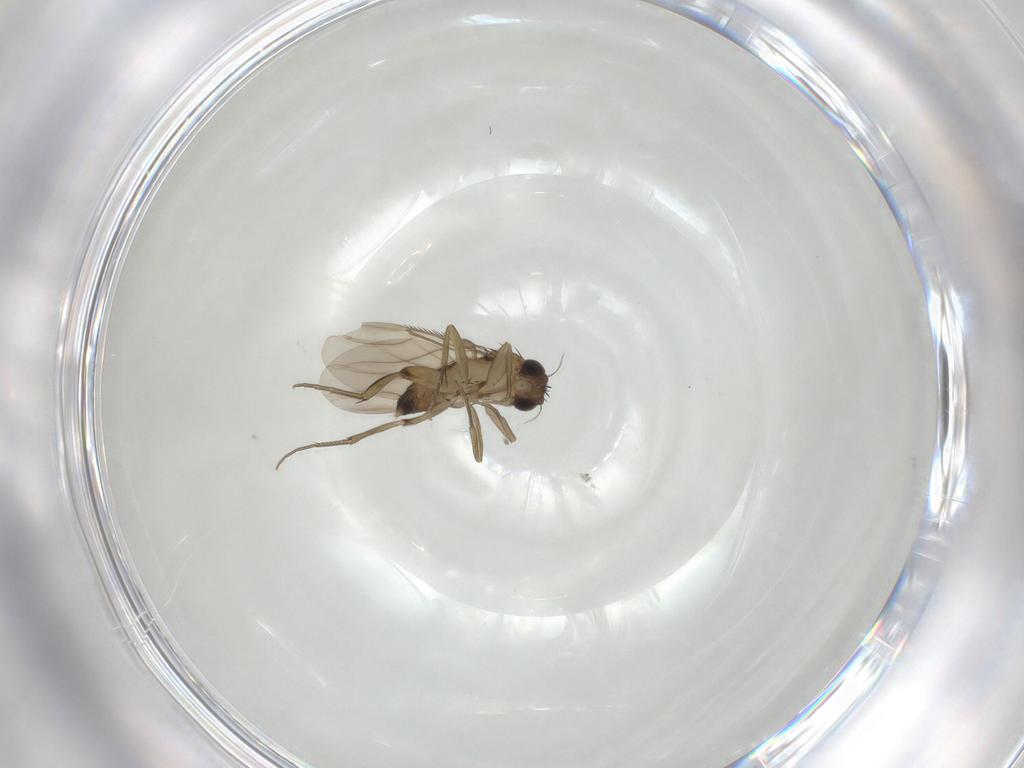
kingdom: Animalia
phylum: Arthropoda
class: Insecta
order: Diptera
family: Phoridae
